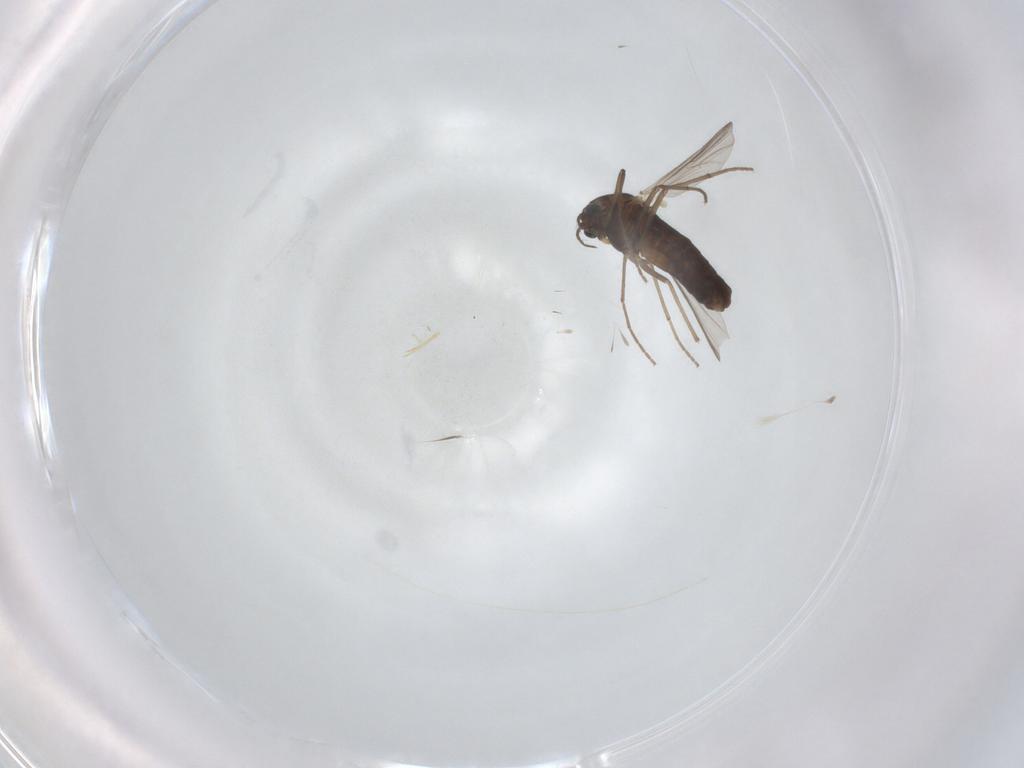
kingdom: Animalia
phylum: Arthropoda
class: Insecta
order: Diptera
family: Chironomidae
